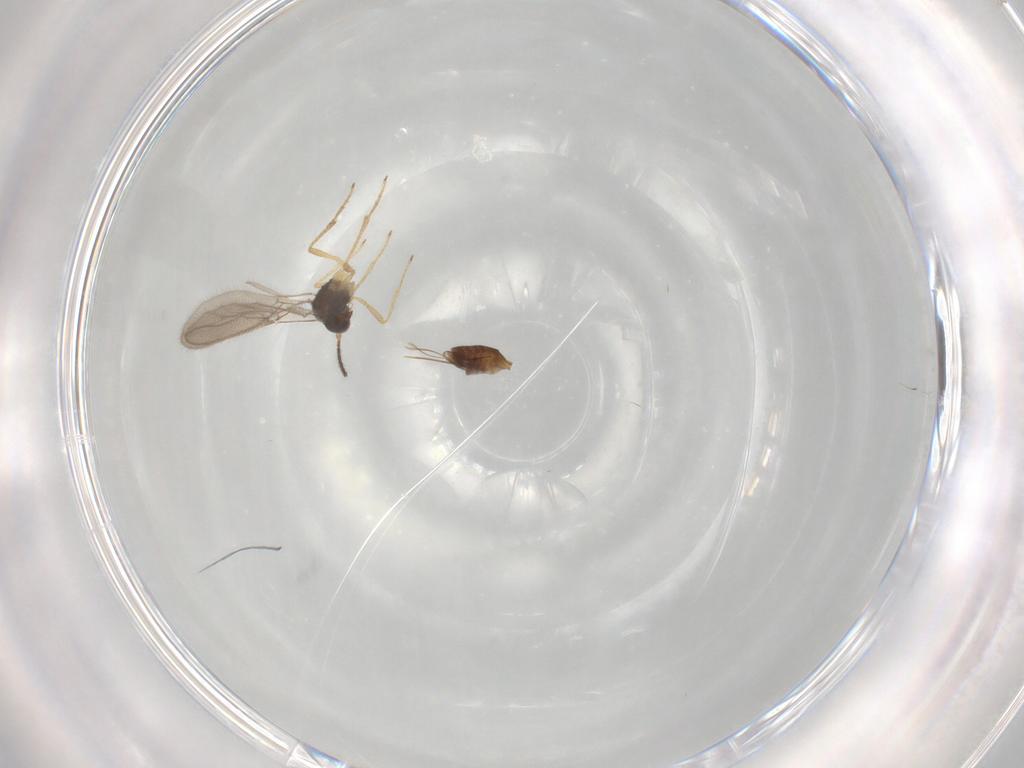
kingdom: Animalia
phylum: Arthropoda
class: Insecta
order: Hymenoptera
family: Braconidae
